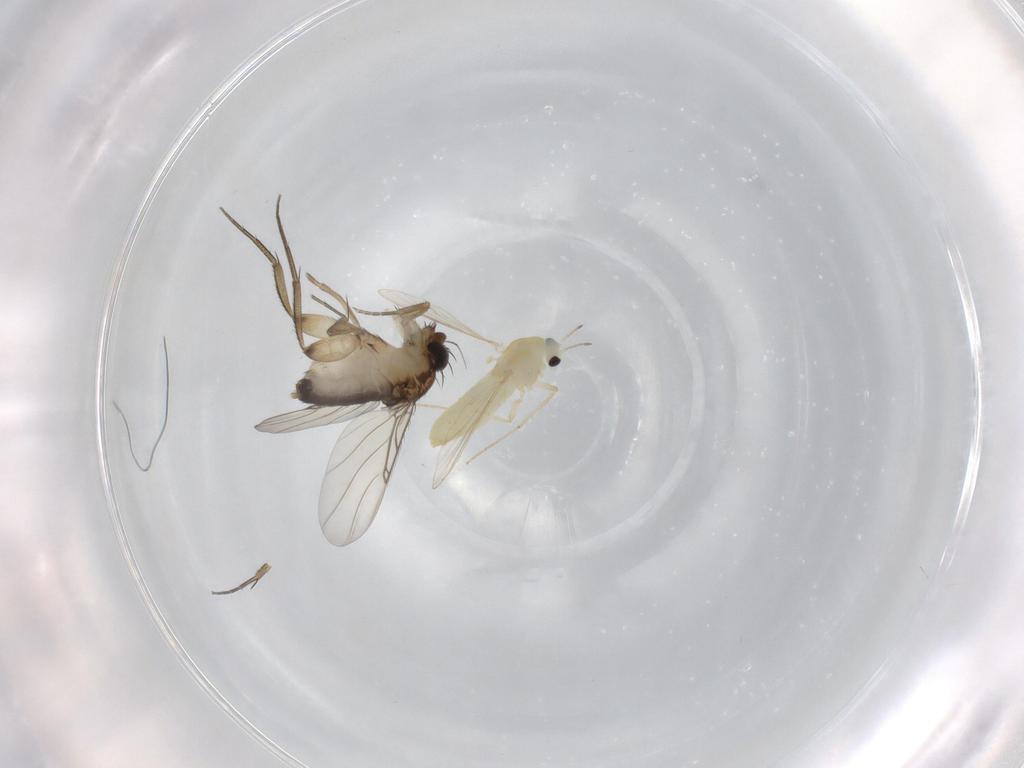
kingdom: Animalia
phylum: Arthropoda
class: Insecta
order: Diptera
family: Chironomidae
